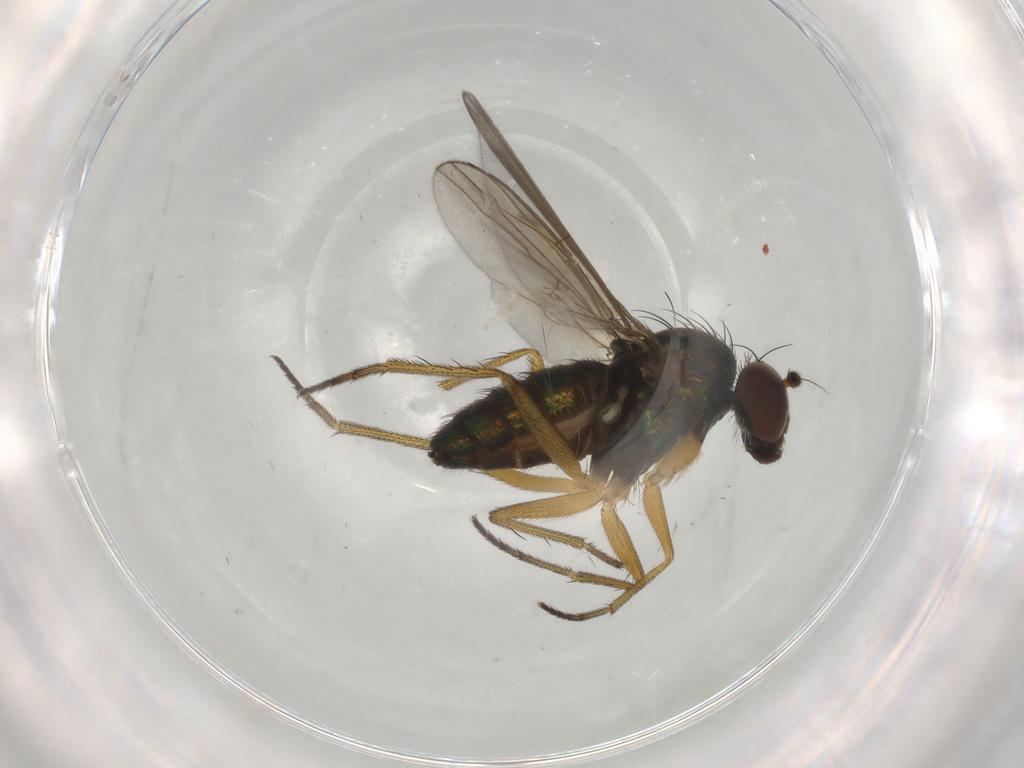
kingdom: Animalia
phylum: Arthropoda
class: Insecta
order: Diptera
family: Dolichopodidae
